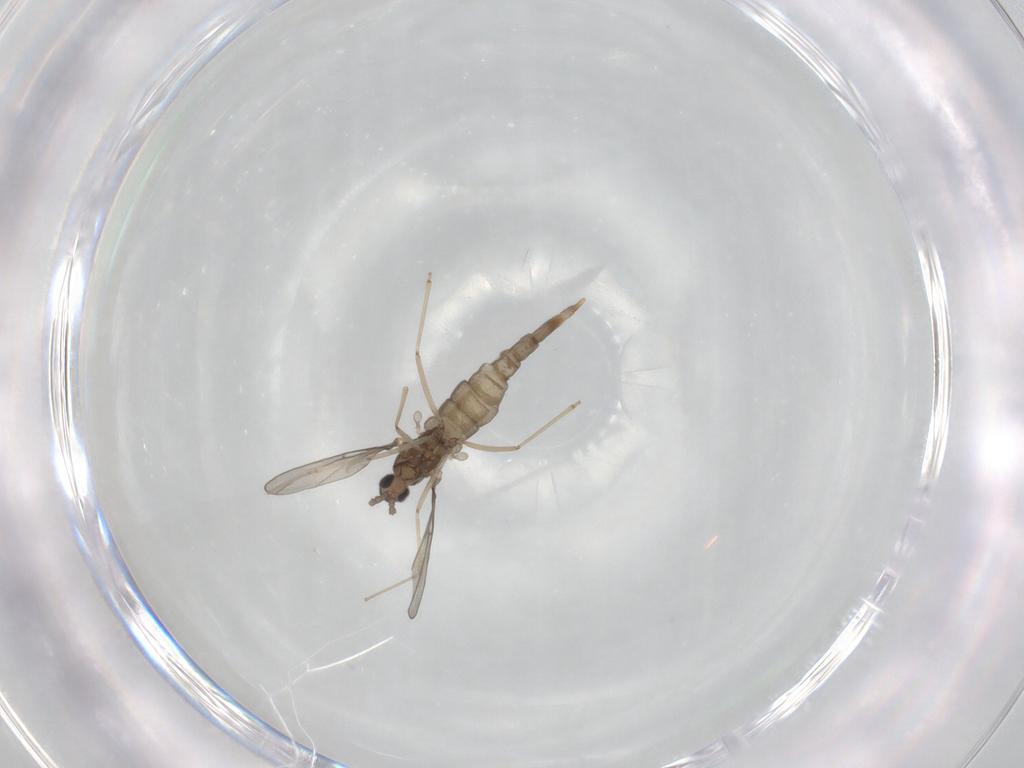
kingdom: Animalia
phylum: Arthropoda
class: Insecta
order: Diptera
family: Cecidomyiidae
